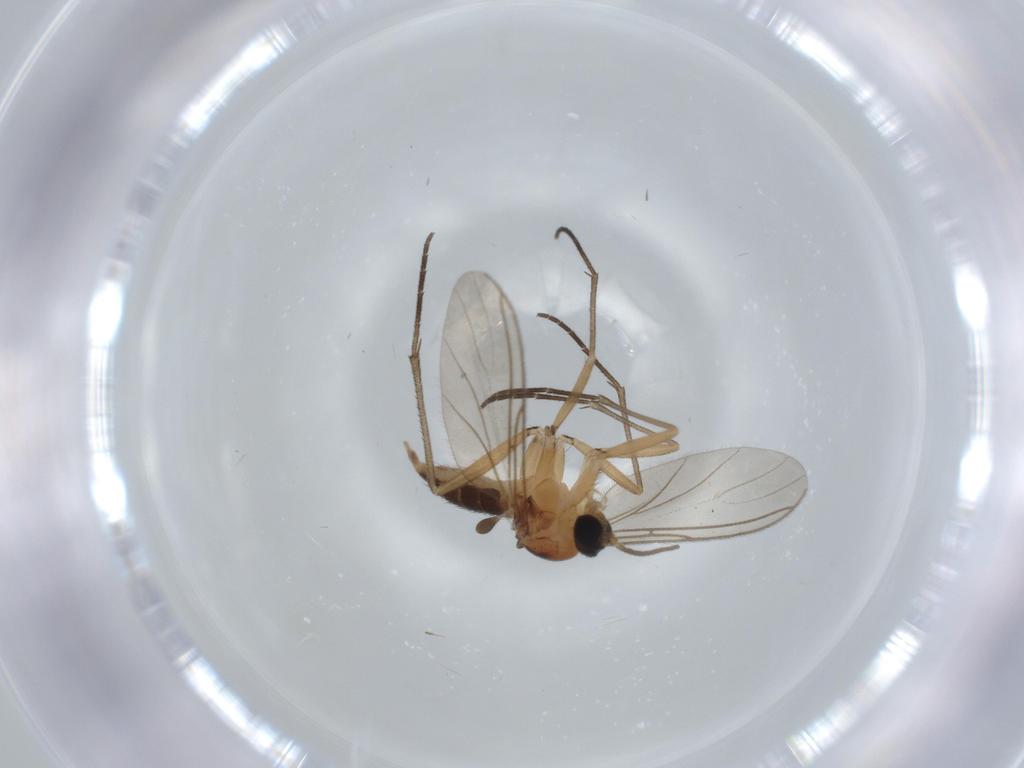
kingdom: Animalia
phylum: Arthropoda
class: Insecta
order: Diptera
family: Sciaridae
